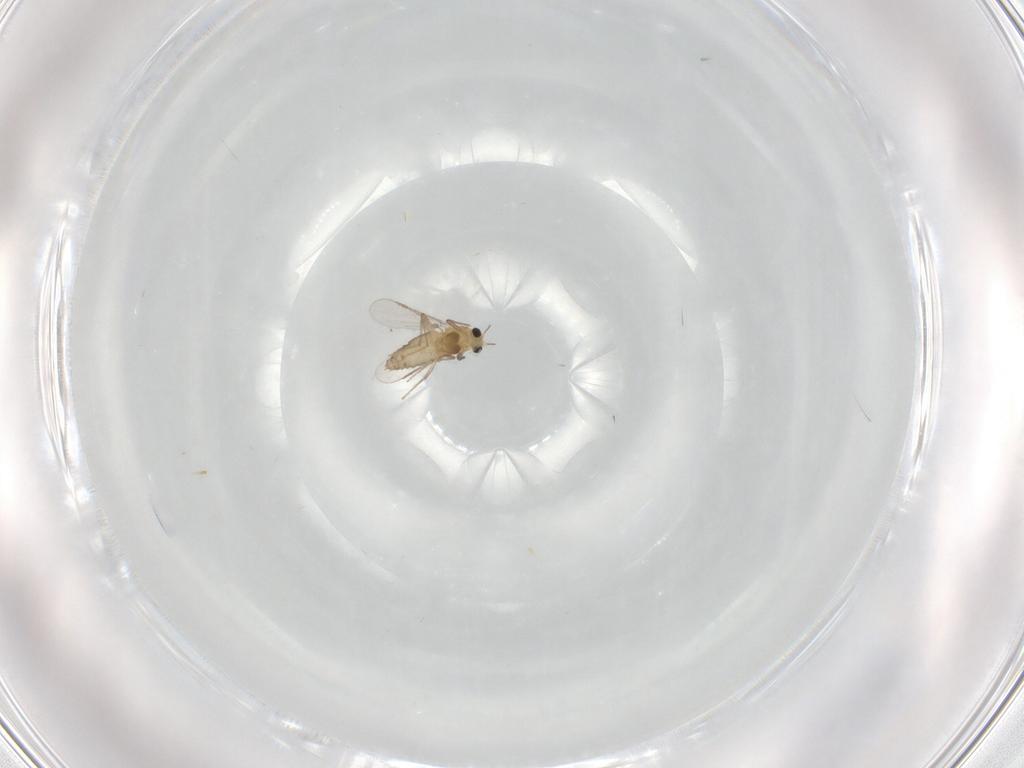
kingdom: Animalia
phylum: Arthropoda
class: Insecta
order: Diptera
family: Chironomidae
